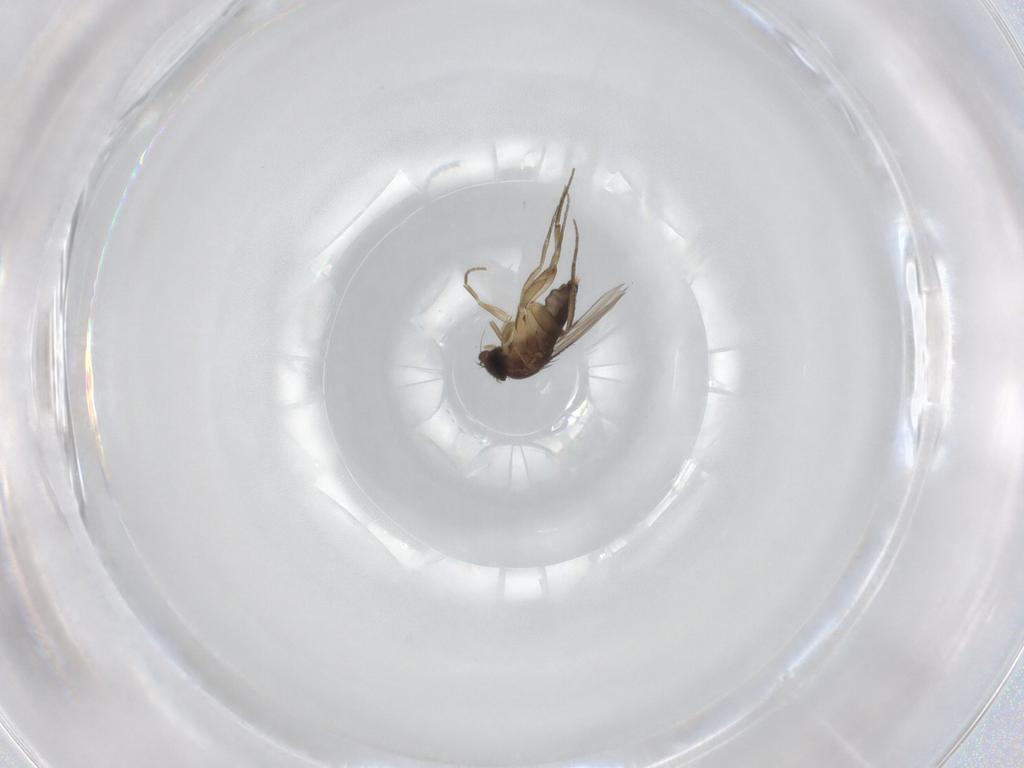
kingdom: Animalia
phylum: Arthropoda
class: Insecta
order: Diptera
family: Phoridae
